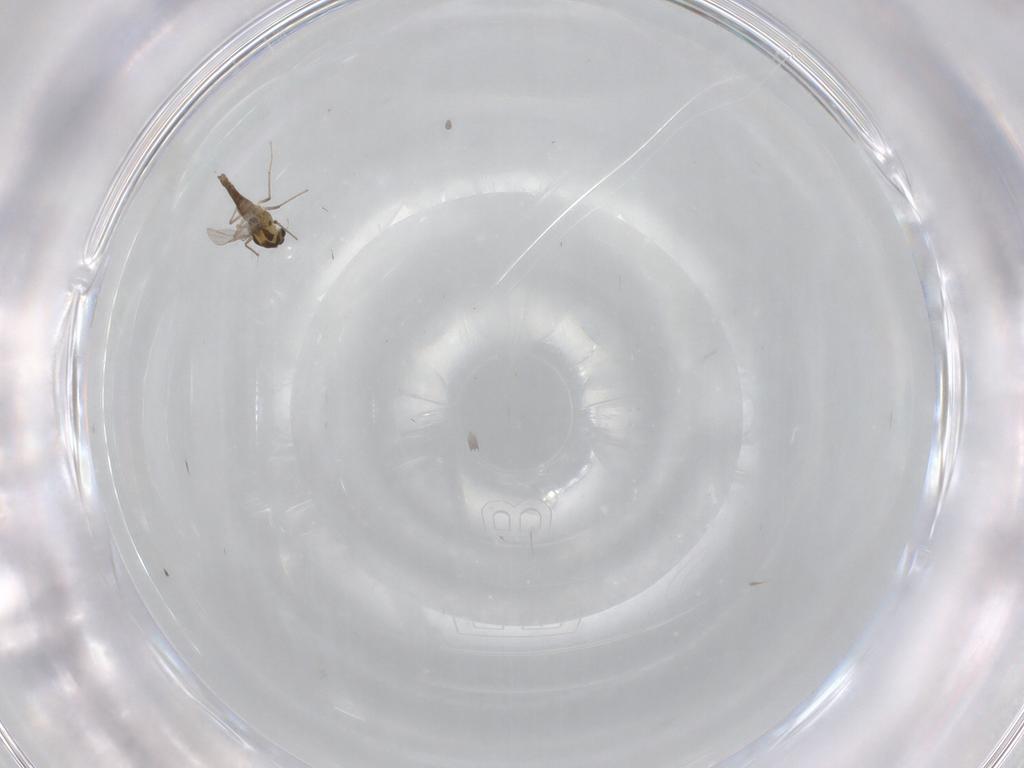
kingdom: Animalia
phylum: Arthropoda
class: Insecta
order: Diptera
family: Chironomidae
